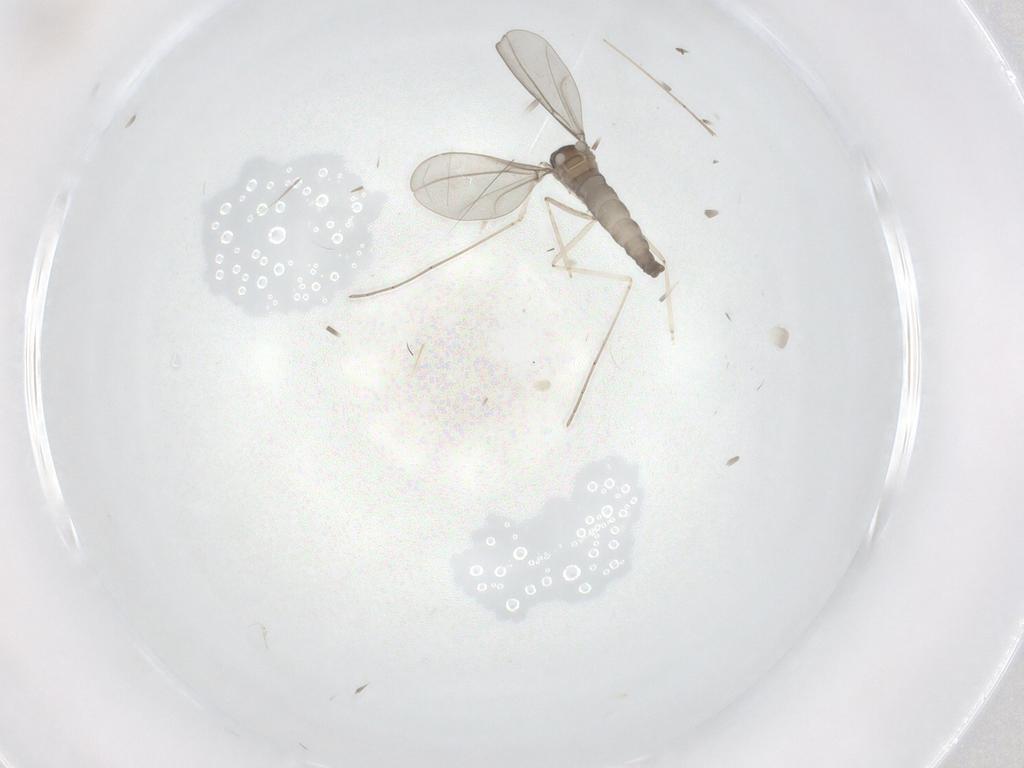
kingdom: Animalia
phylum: Arthropoda
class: Insecta
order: Diptera
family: Cecidomyiidae
